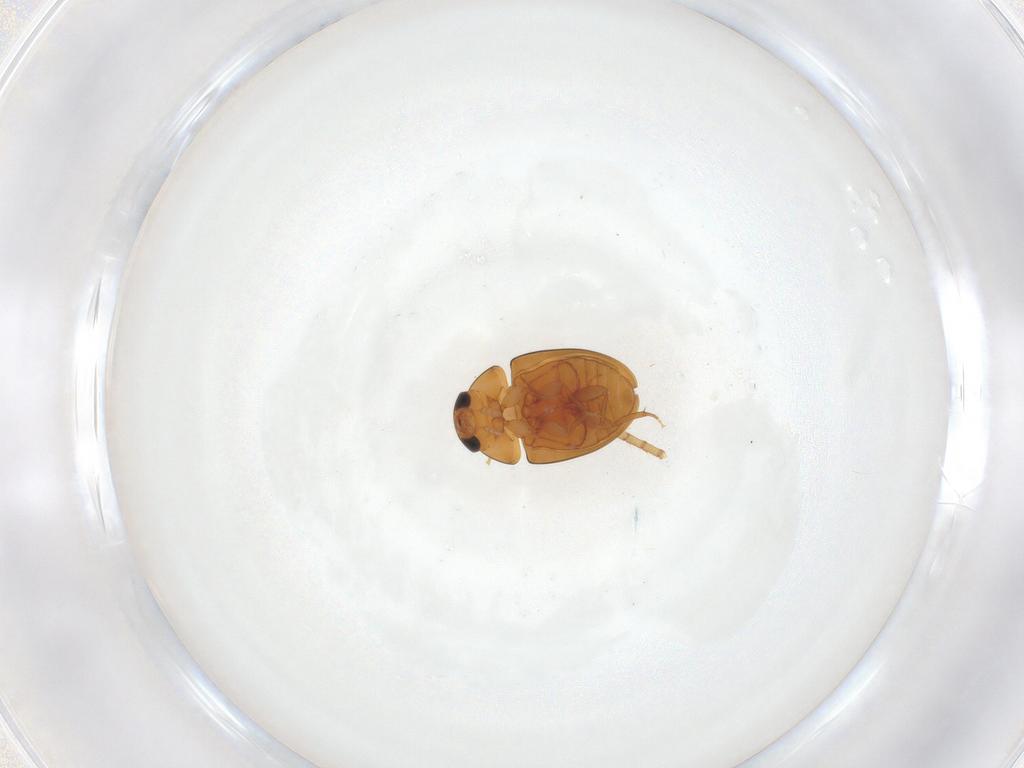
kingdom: Animalia
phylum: Arthropoda
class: Insecta
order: Coleoptera
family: Phalacridae
